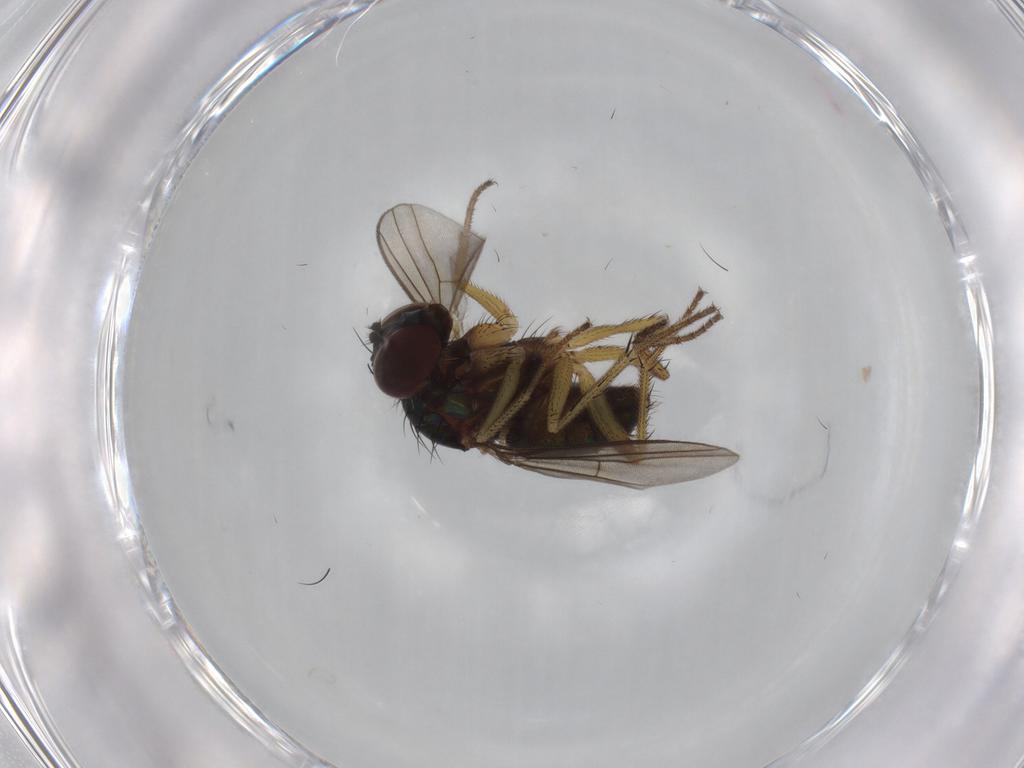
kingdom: Animalia
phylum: Arthropoda
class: Insecta
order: Diptera
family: Dolichopodidae
